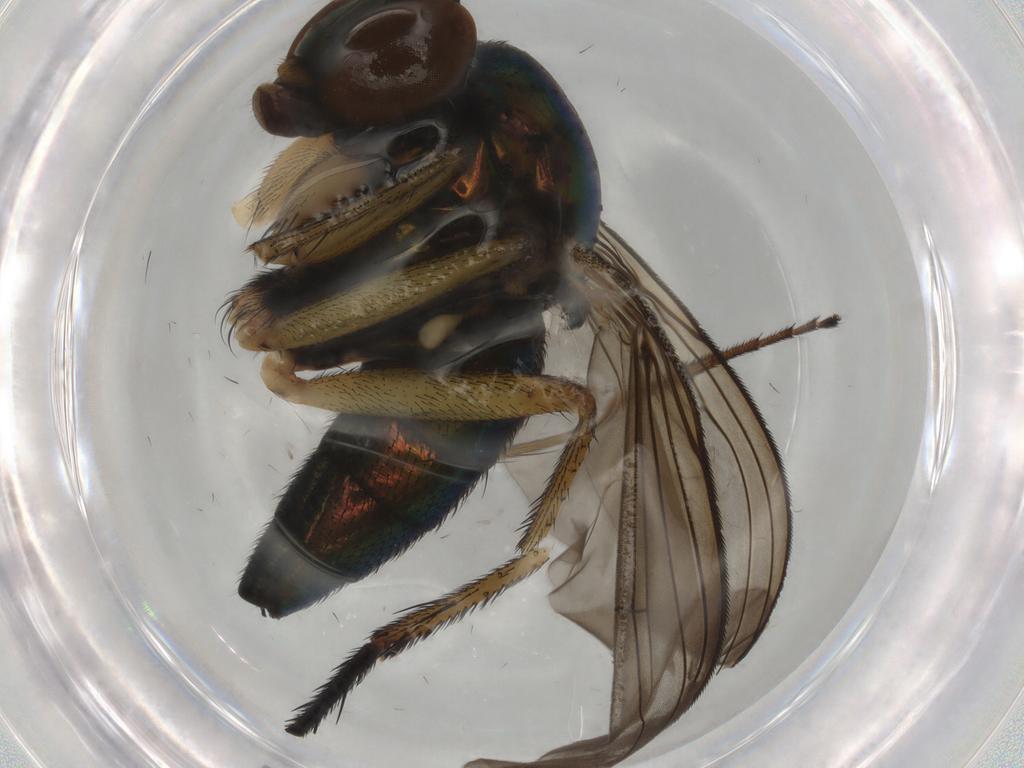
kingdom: Animalia
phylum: Arthropoda
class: Insecta
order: Diptera
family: Dolichopodidae
